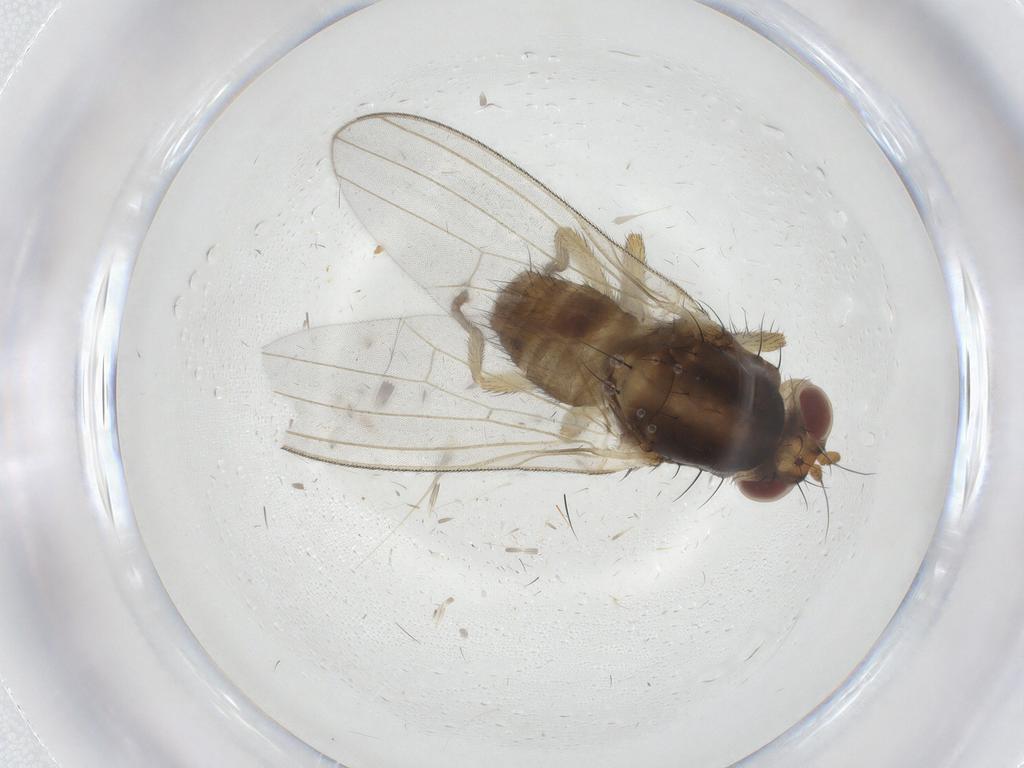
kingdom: Animalia
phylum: Arthropoda
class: Insecta
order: Diptera
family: Lauxaniidae
